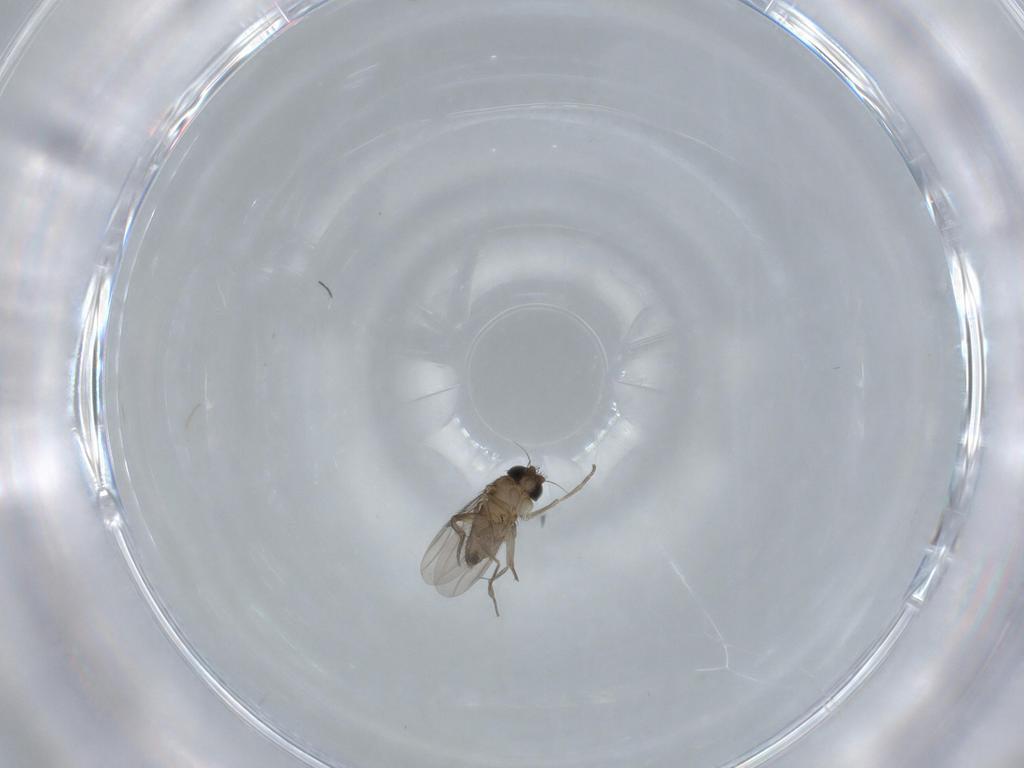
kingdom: Animalia
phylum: Arthropoda
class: Insecta
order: Diptera
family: Phoridae
